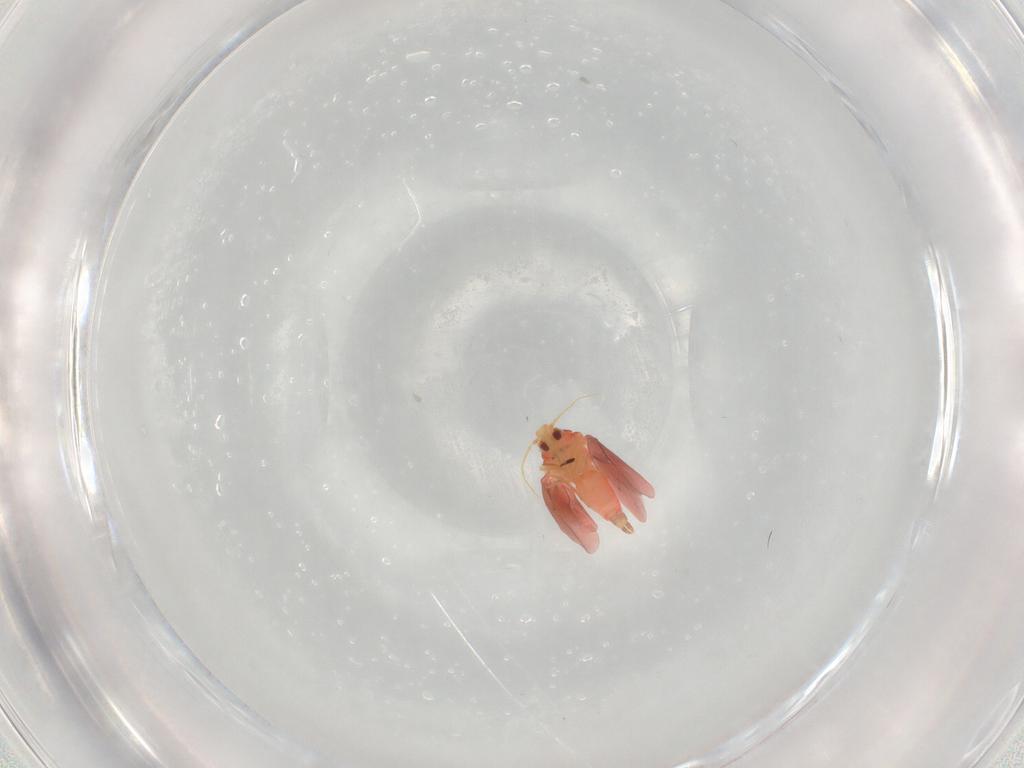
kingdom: Animalia
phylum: Arthropoda
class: Insecta
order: Hemiptera
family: Aleyrodidae
